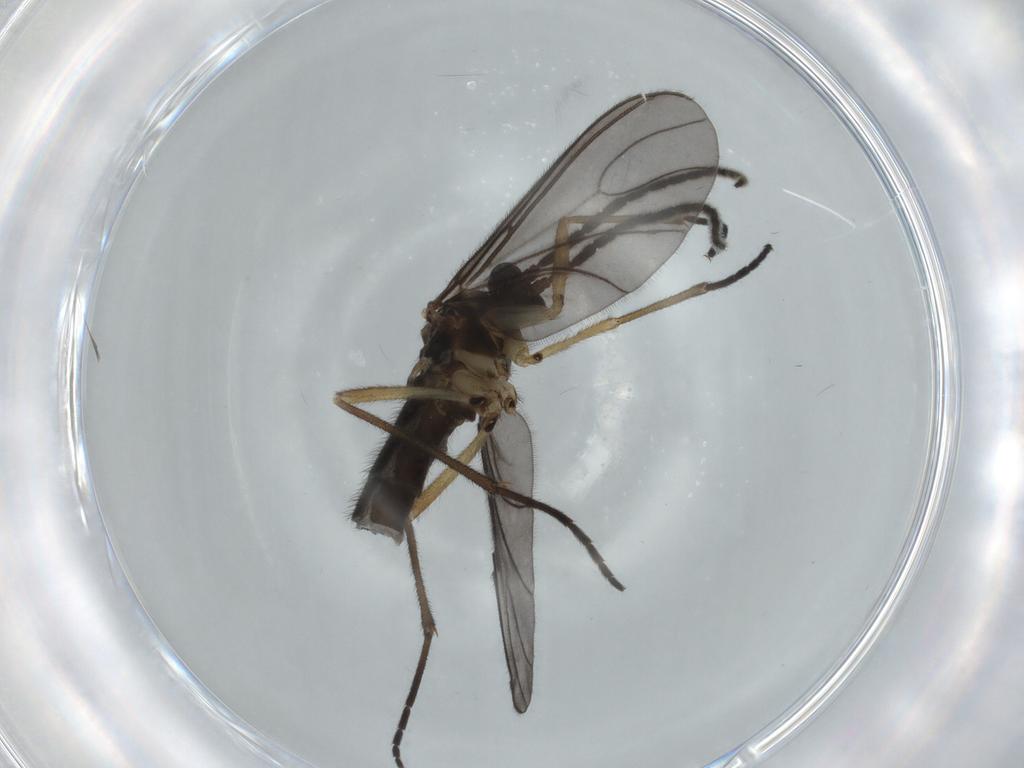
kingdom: Animalia
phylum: Arthropoda
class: Insecta
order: Diptera
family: Sciaridae
